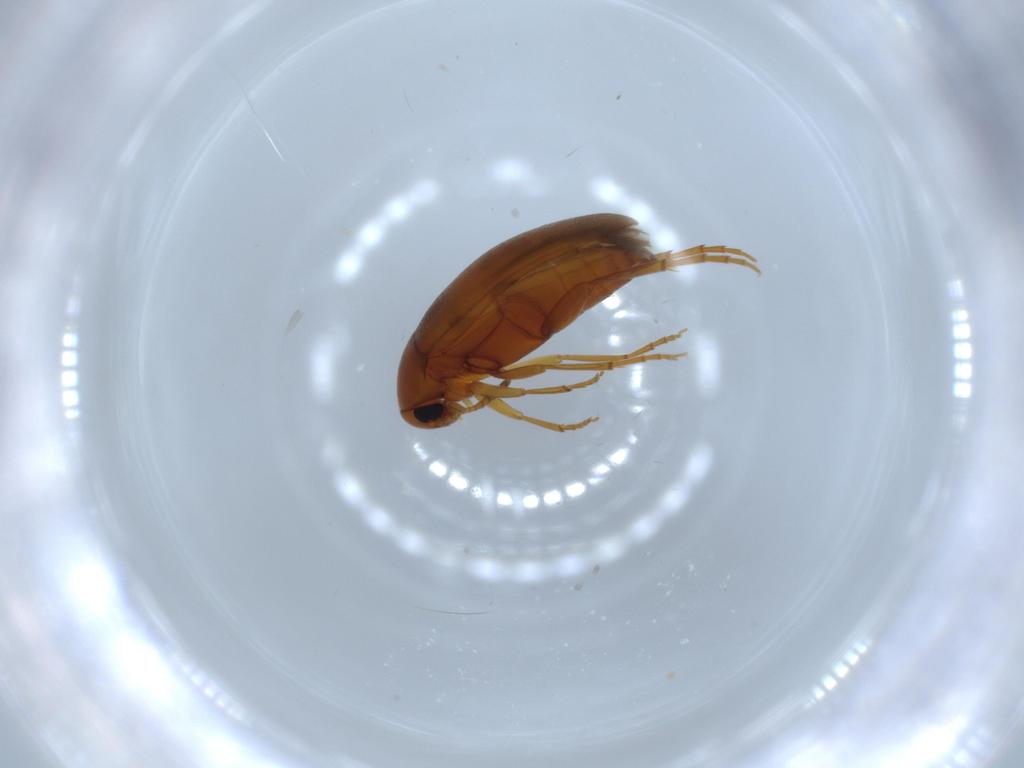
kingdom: Animalia
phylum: Arthropoda
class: Insecta
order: Coleoptera
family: Scraptiidae
